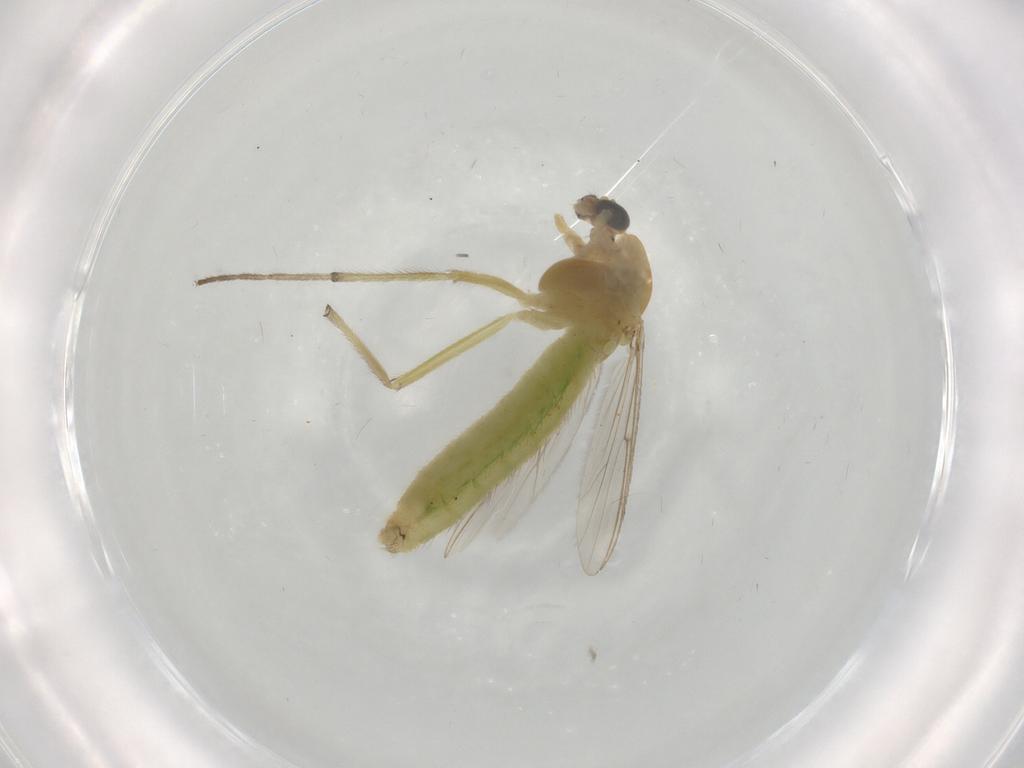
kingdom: Animalia
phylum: Arthropoda
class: Insecta
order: Diptera
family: Chironomidae
